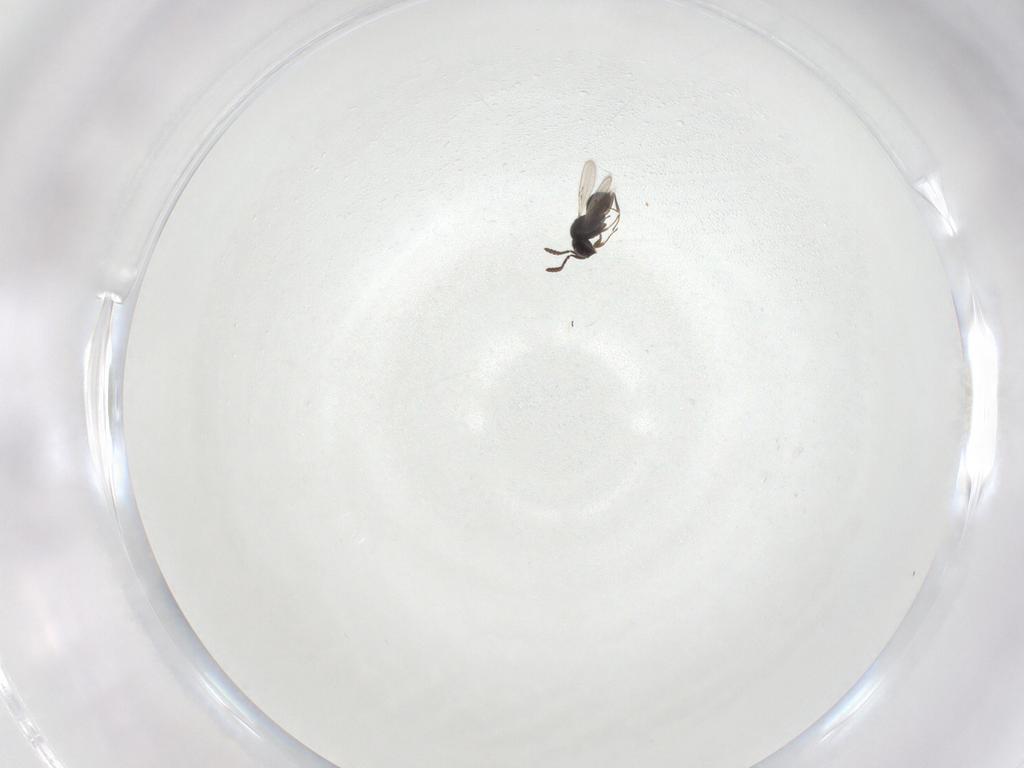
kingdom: Animalia
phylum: Arthropoda
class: Insecta
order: Hymenoptera
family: Scelionidae
